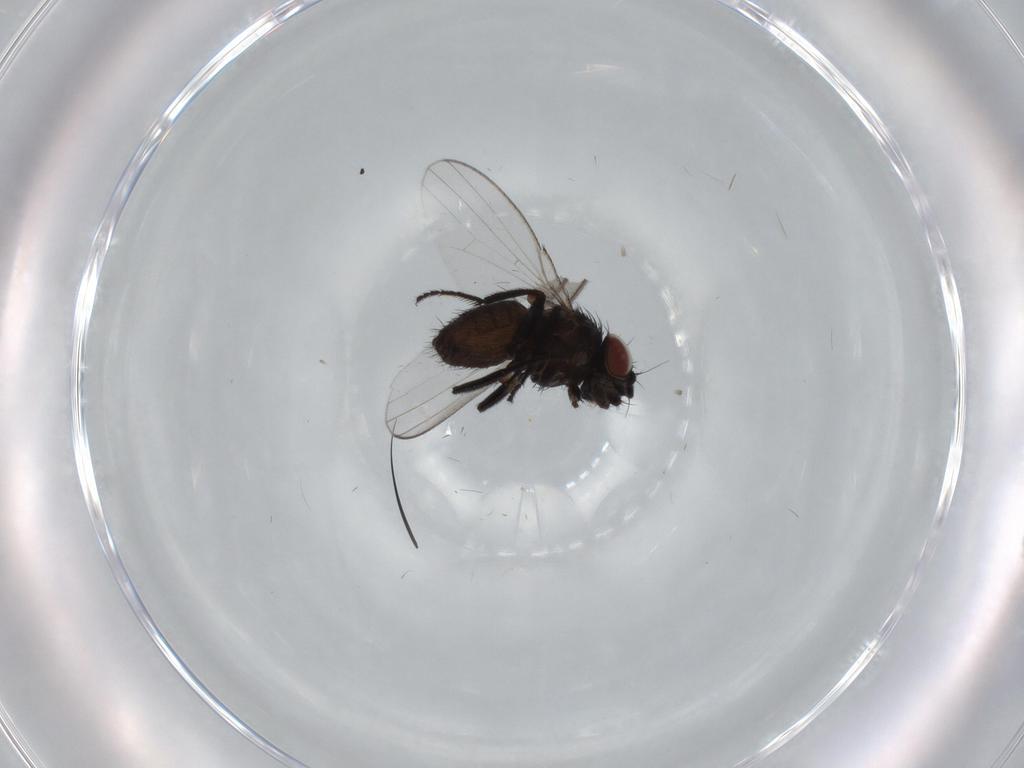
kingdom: Animalia
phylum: Arthropoda
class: Insecta
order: Diptera
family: Milichiidae
